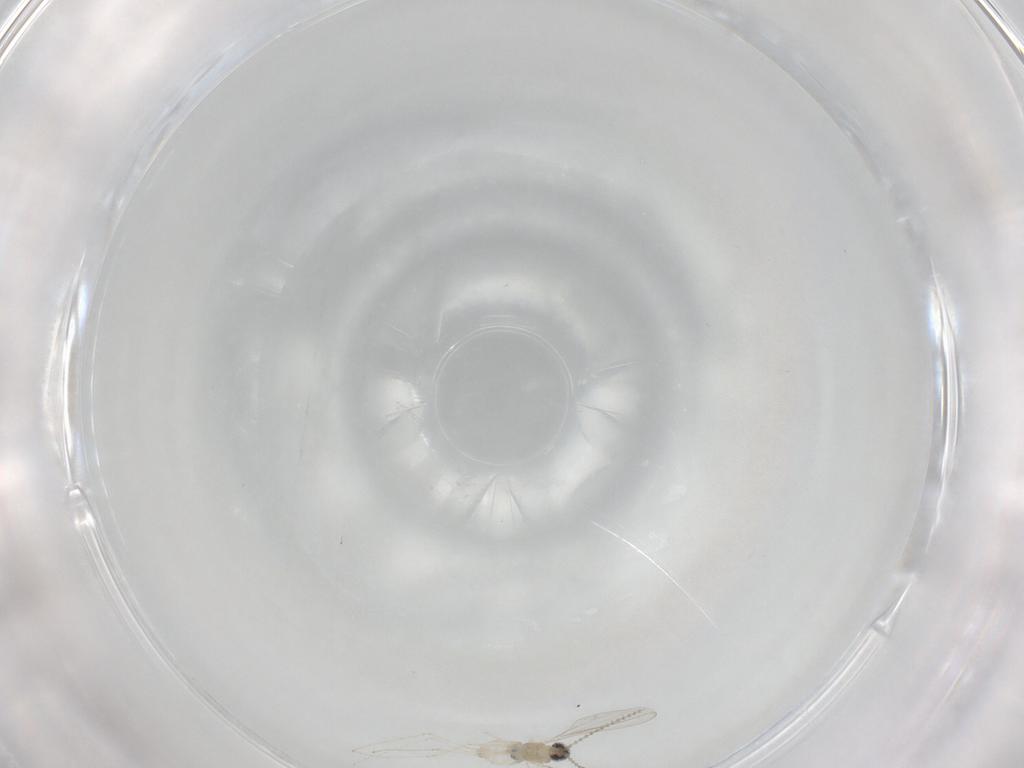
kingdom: Animalia
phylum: Arthropoda
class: Insecta
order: Diptera
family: Cecidomyiidae
